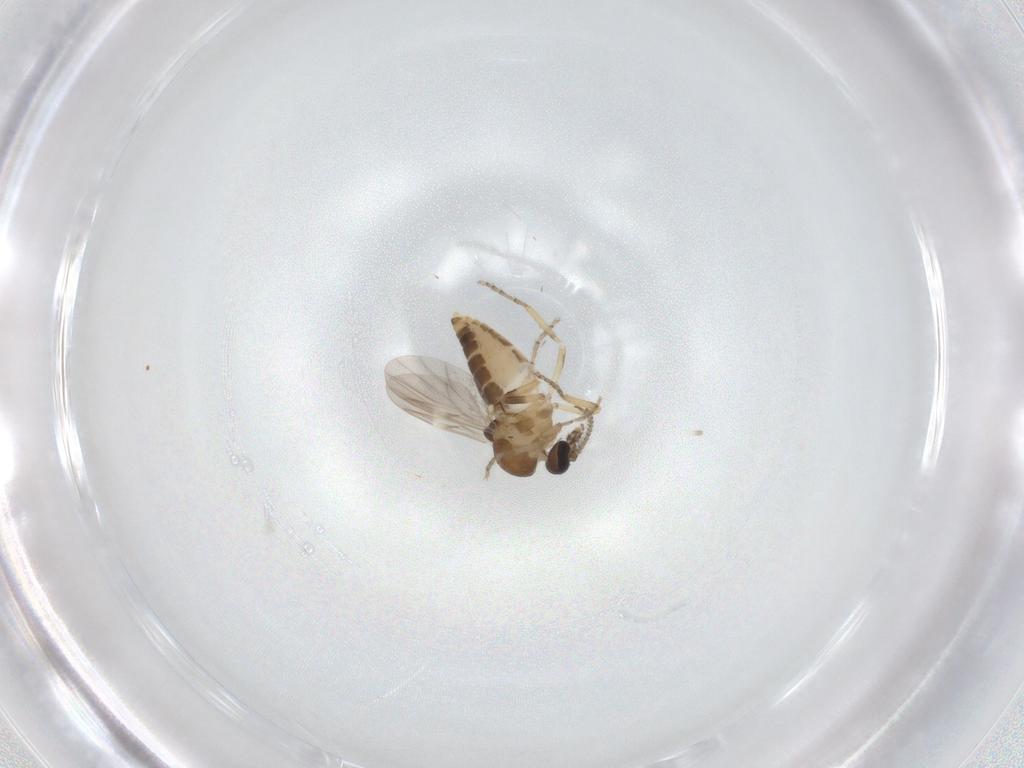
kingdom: Animalia
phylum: Arthropoda
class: Insecta
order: Diptera
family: Ceratopogonidae
